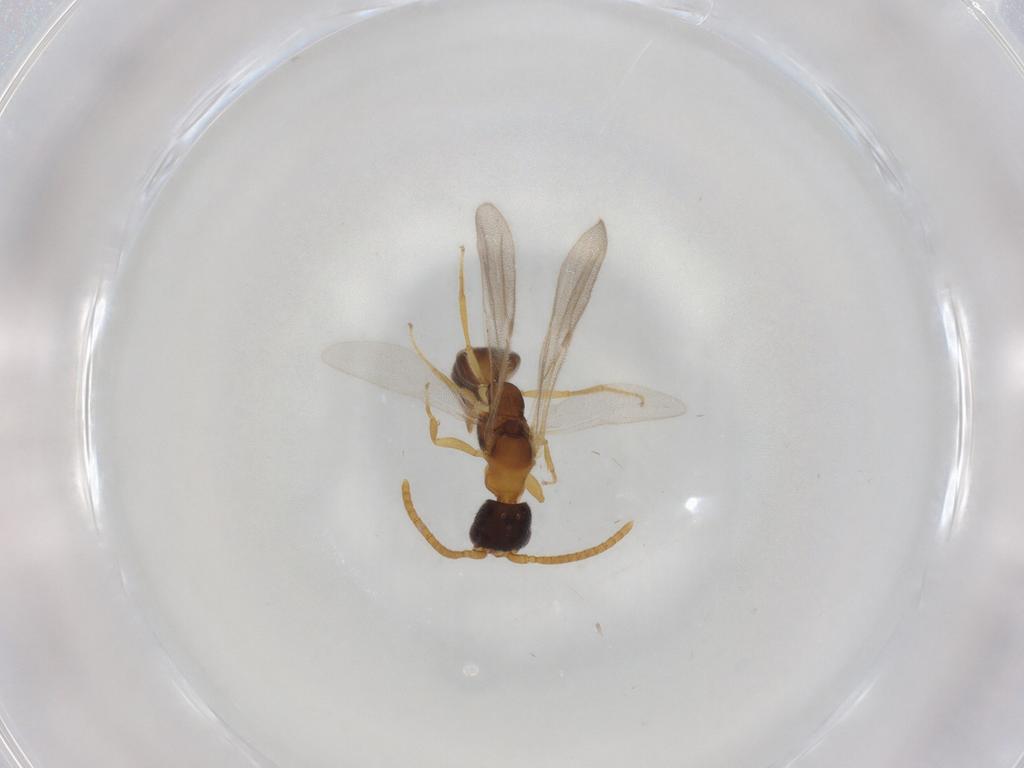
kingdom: Animalia
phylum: Arthropoda
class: Insecta
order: Hymenoptera
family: Bethylidae
